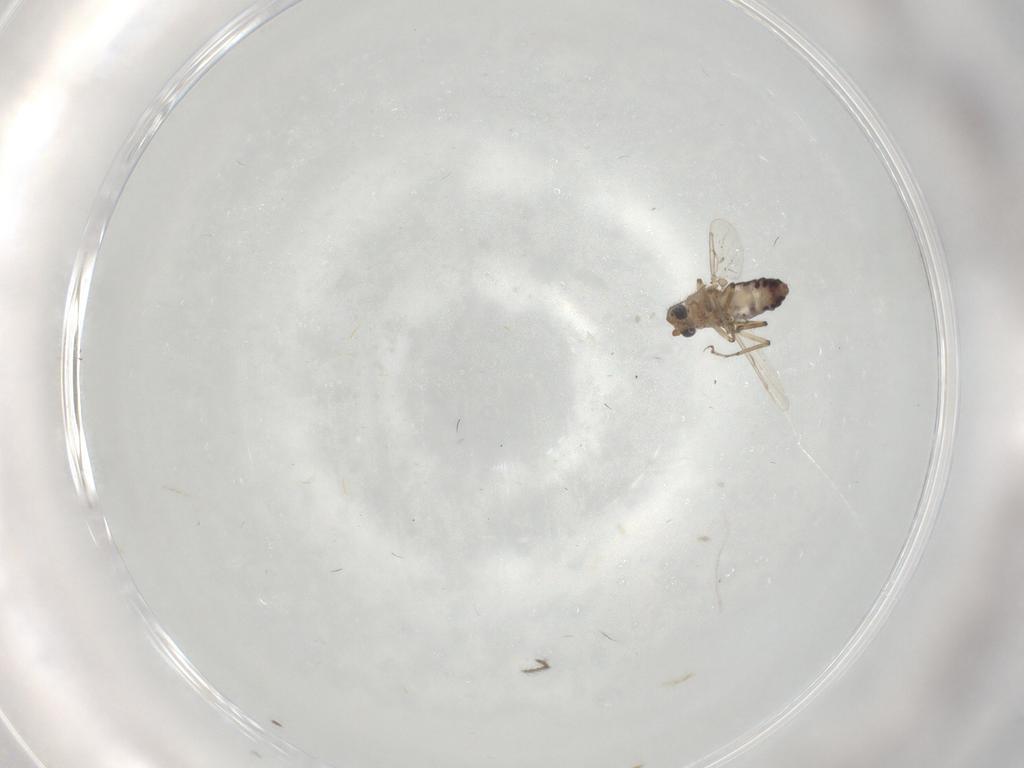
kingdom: Animalia
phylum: Arthropoda
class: Insecta
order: Diptera
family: Ceratopogonidae
